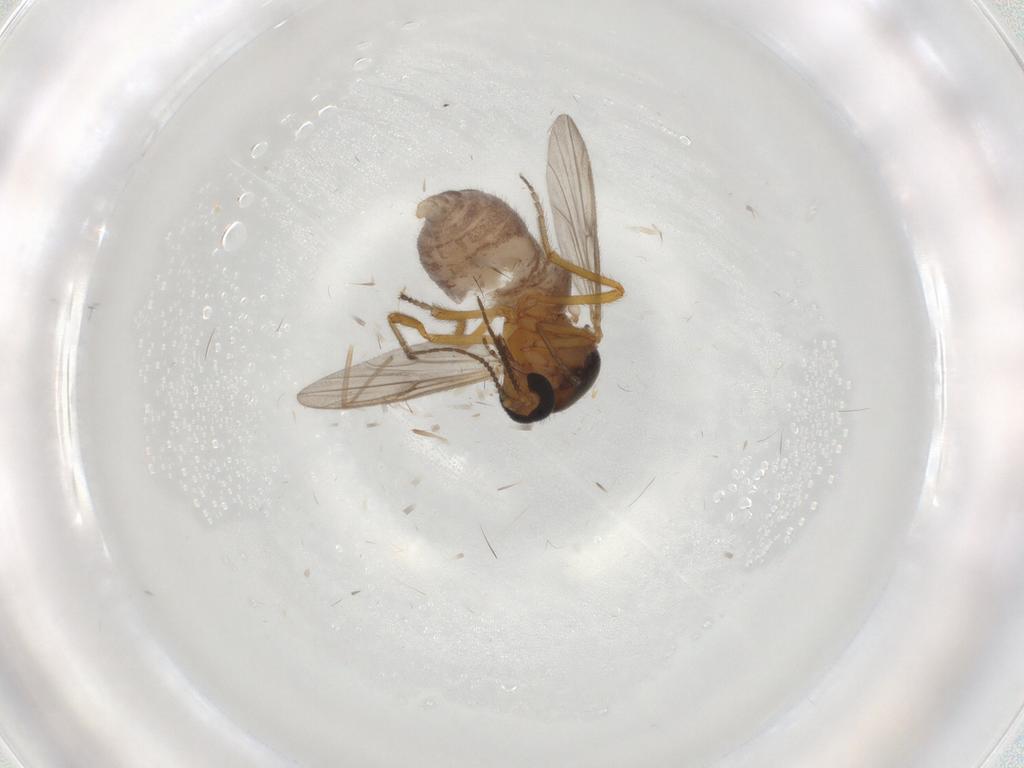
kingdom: Animalia
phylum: Arthropoda
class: Insecta
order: Diptera
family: Ceratopogonidae
